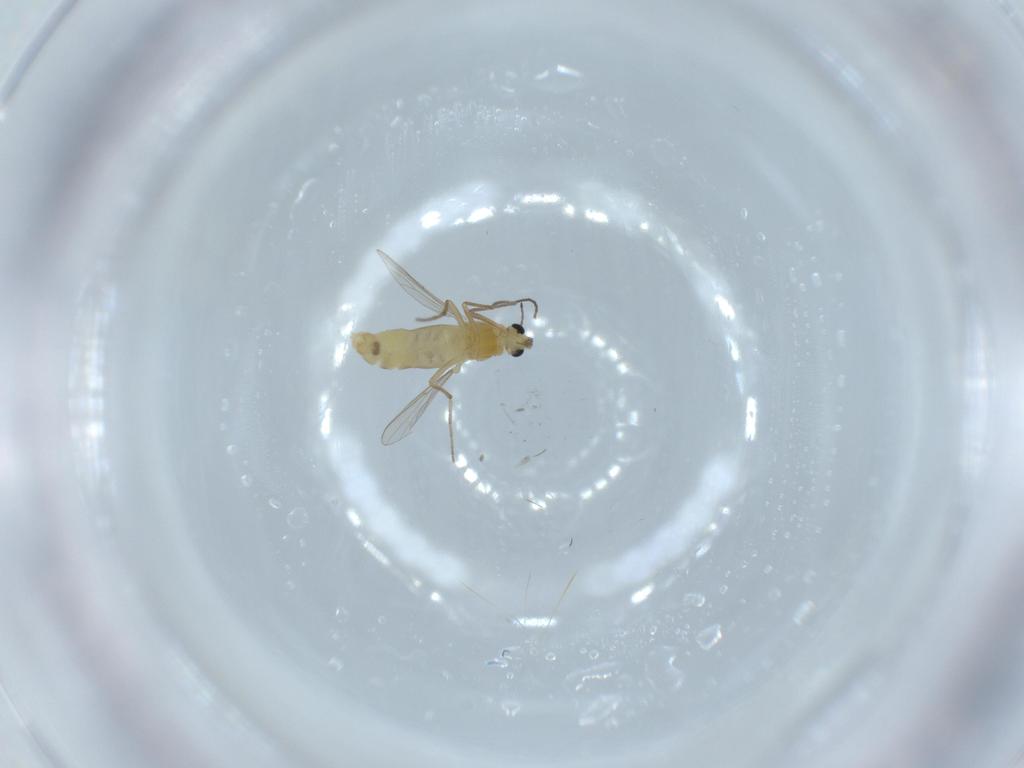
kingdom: Animalia
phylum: Arthropoda
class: Insecta
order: Diptera
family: Chironomidae
